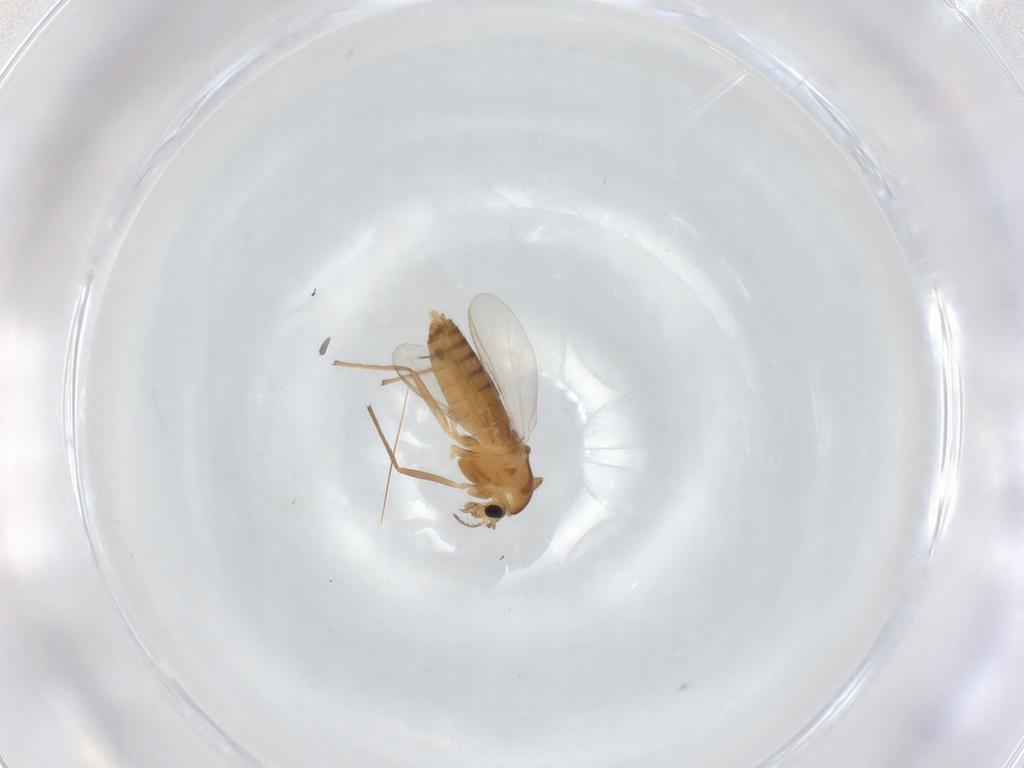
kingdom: Animalia
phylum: Arthropoda
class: Insecta
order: Diptera
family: Chironomidae
